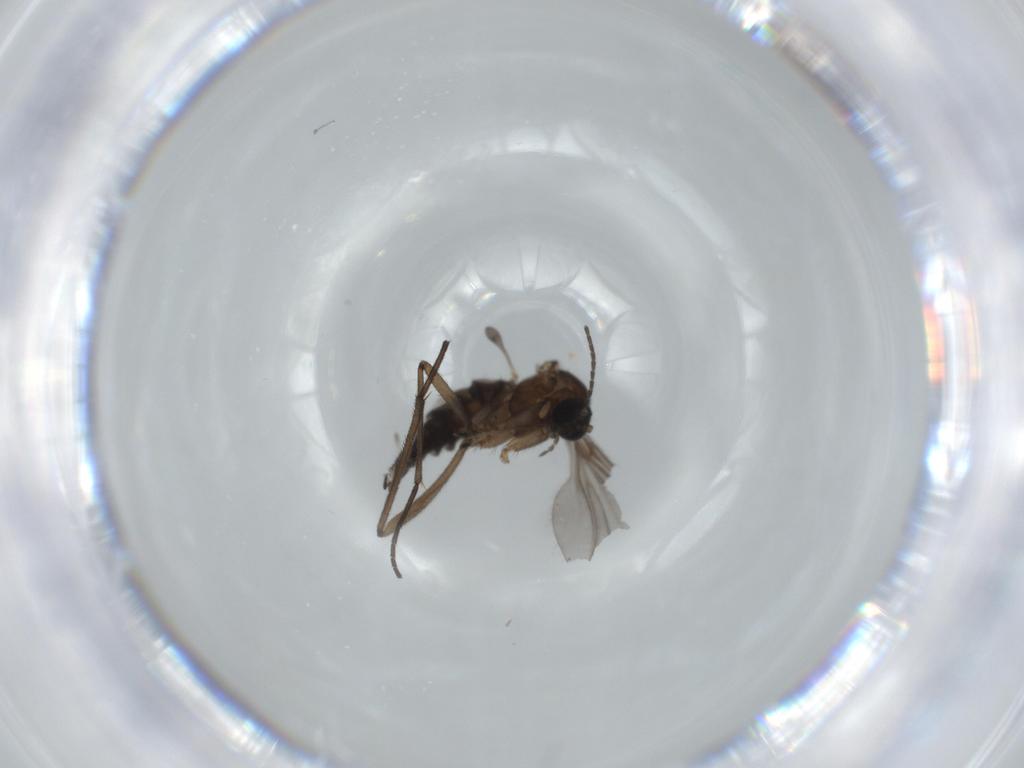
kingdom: Animalia
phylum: Arthropoda
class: Insecta
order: Diptera
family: Sciaridae
